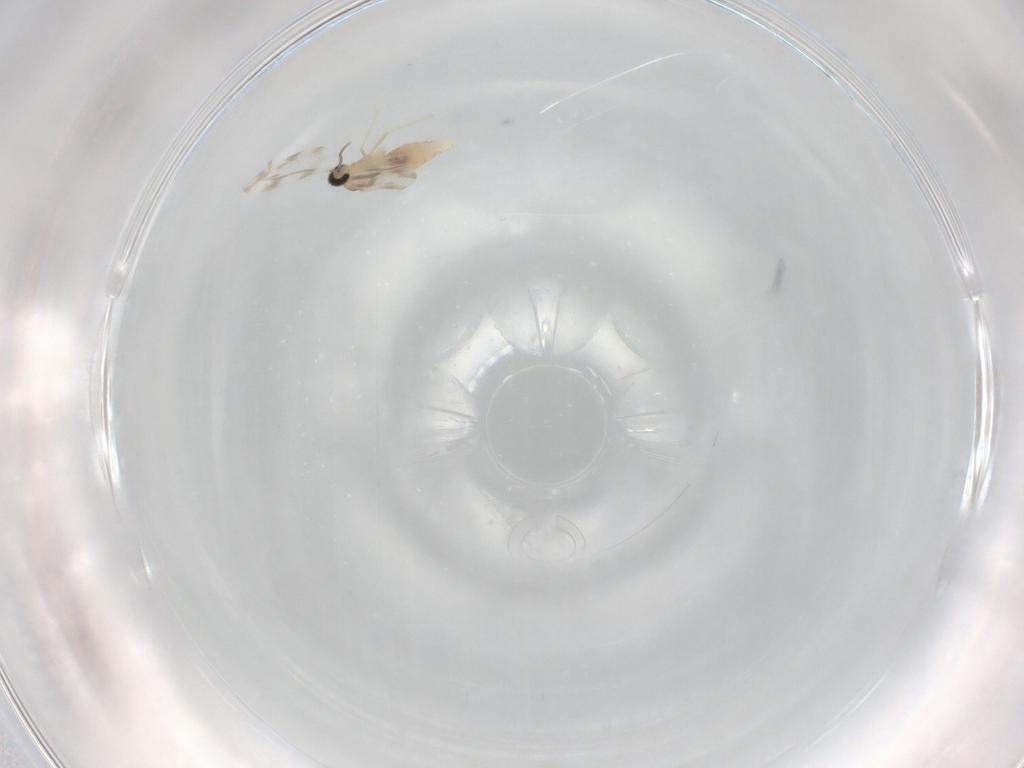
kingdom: Animalia
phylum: Arthropoda
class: Insecta
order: Diptera
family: Cecidomyiidae
